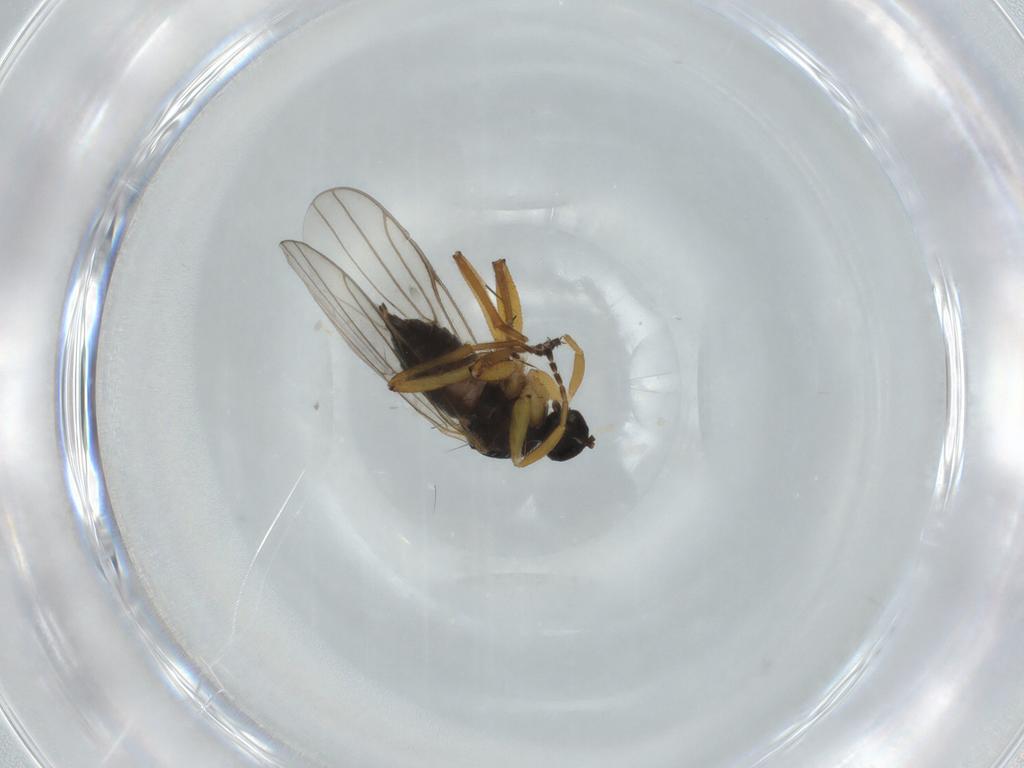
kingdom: Animalia
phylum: Arthropoda
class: Insecta
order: Diptera
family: Hybotidae
